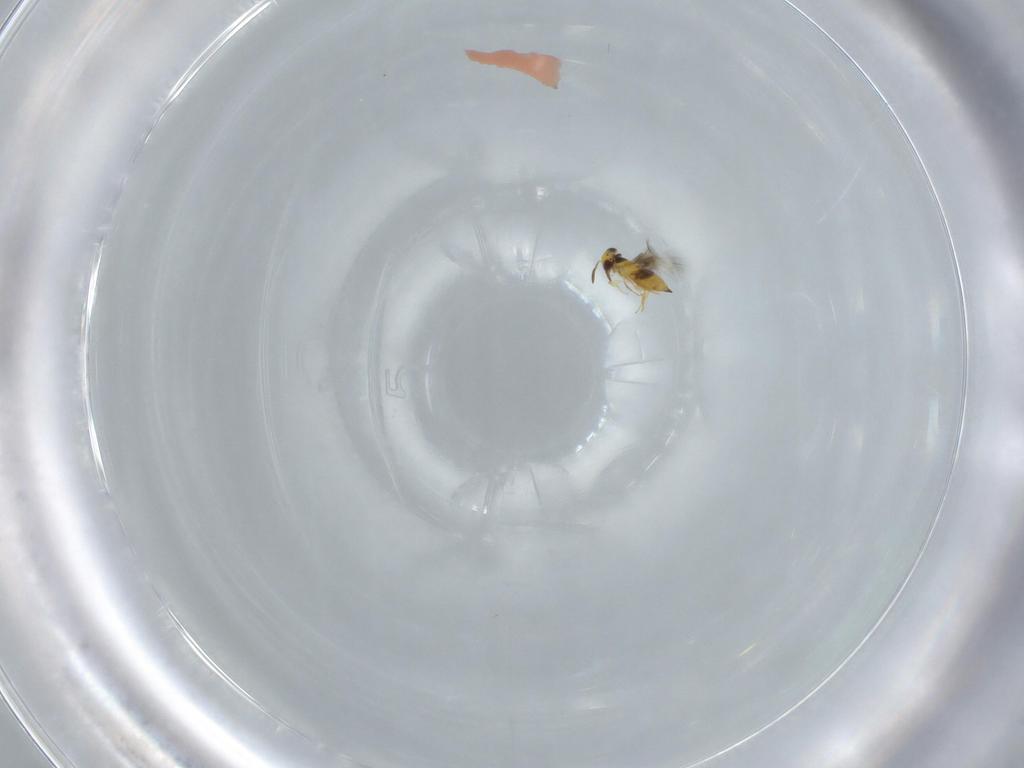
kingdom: Animalia
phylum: Arthropoda
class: Insecta
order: Hymenoptera
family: Signiphoridae
